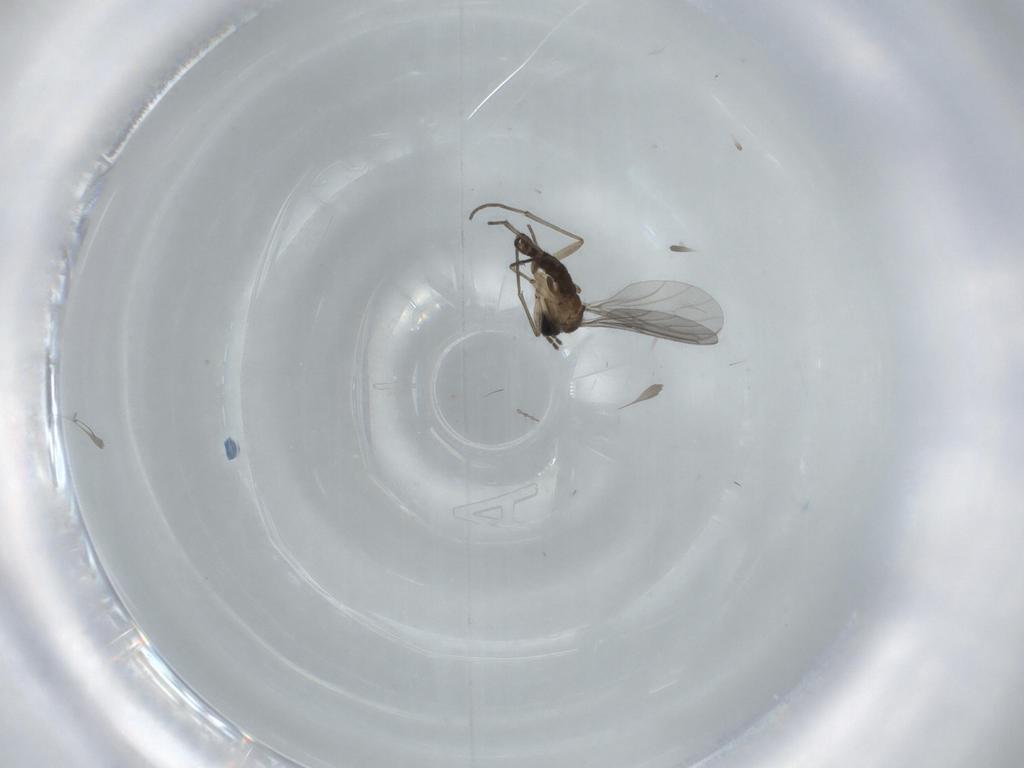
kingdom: Animalia
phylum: Arthropoda
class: Insecta
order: Diptera
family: Sciaridae
